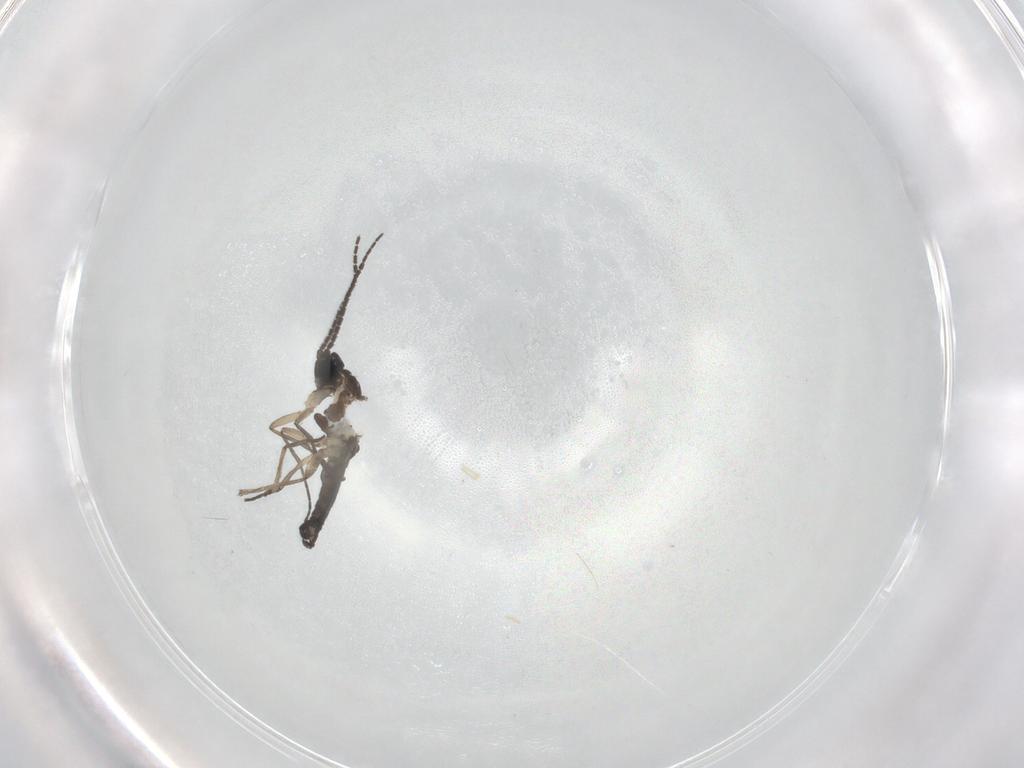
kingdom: Animalia
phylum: Arthropoda
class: Insecta
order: Diptera
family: Sciaridae
